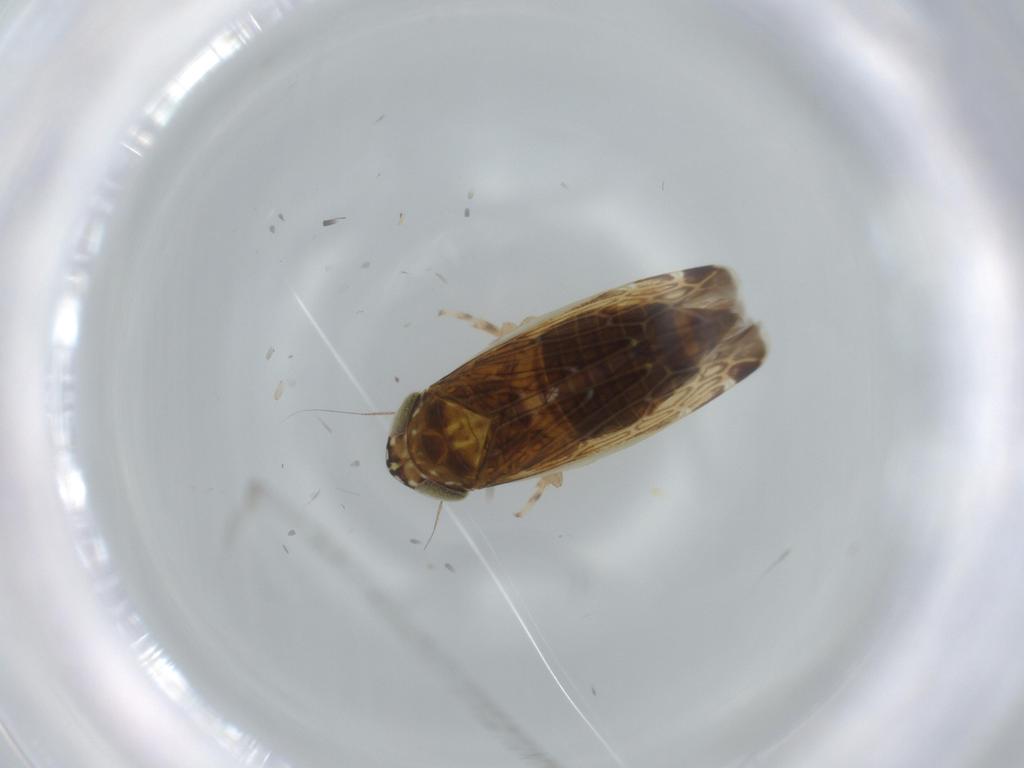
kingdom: Animalia
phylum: Arthropoda
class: Insecta
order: Hemiptera
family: Cicadellidae
